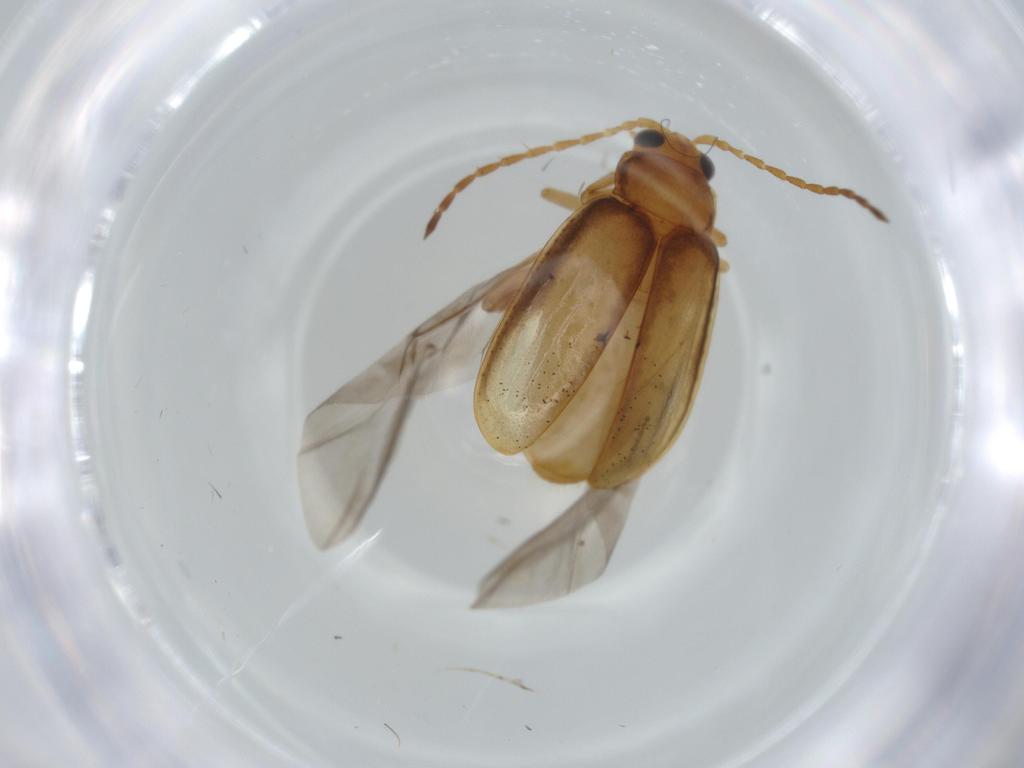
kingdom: Animalia
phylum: Arthropoda
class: Insecta
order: Coleoptera
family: Chrysomelidae
